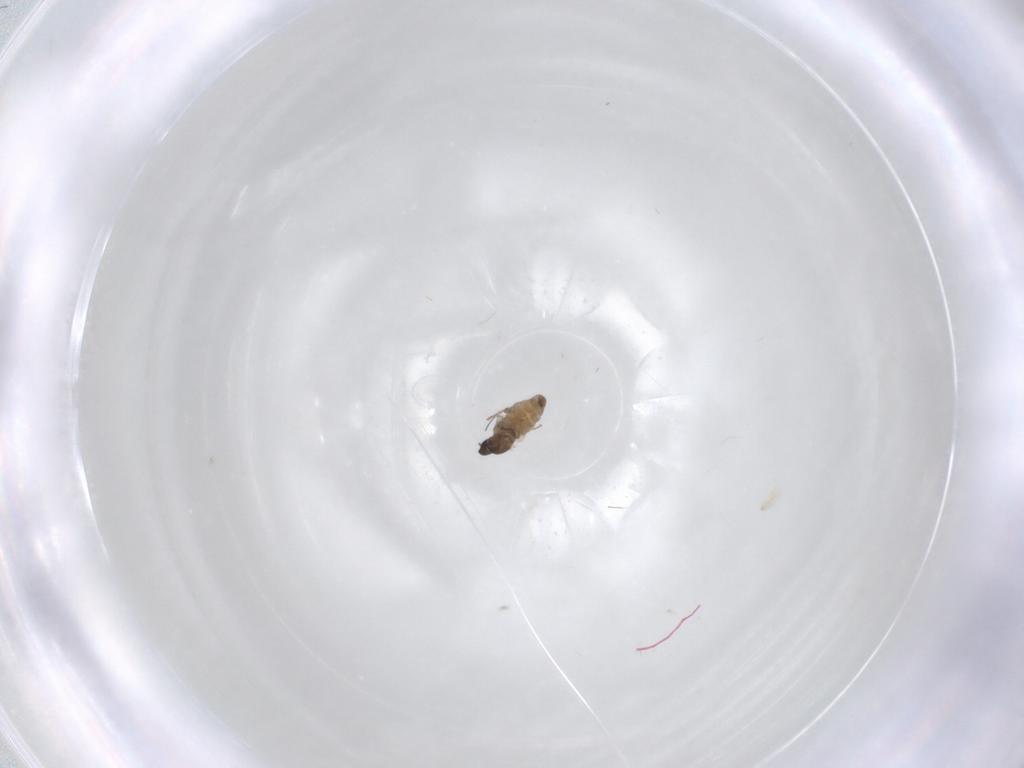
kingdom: Animalia
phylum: Arthropoda
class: Insecta
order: Diptera
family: Cecidomyiidae
